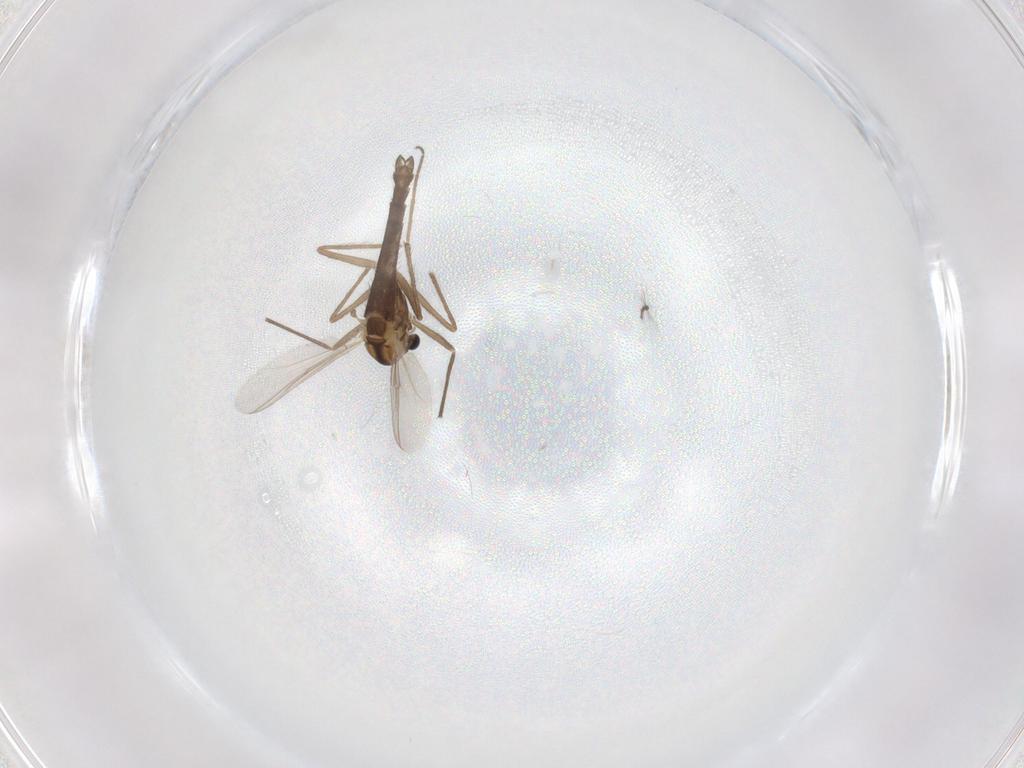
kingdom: Animalia
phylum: Arthropoda
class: Insecta
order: Diptera
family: Chironomidae
